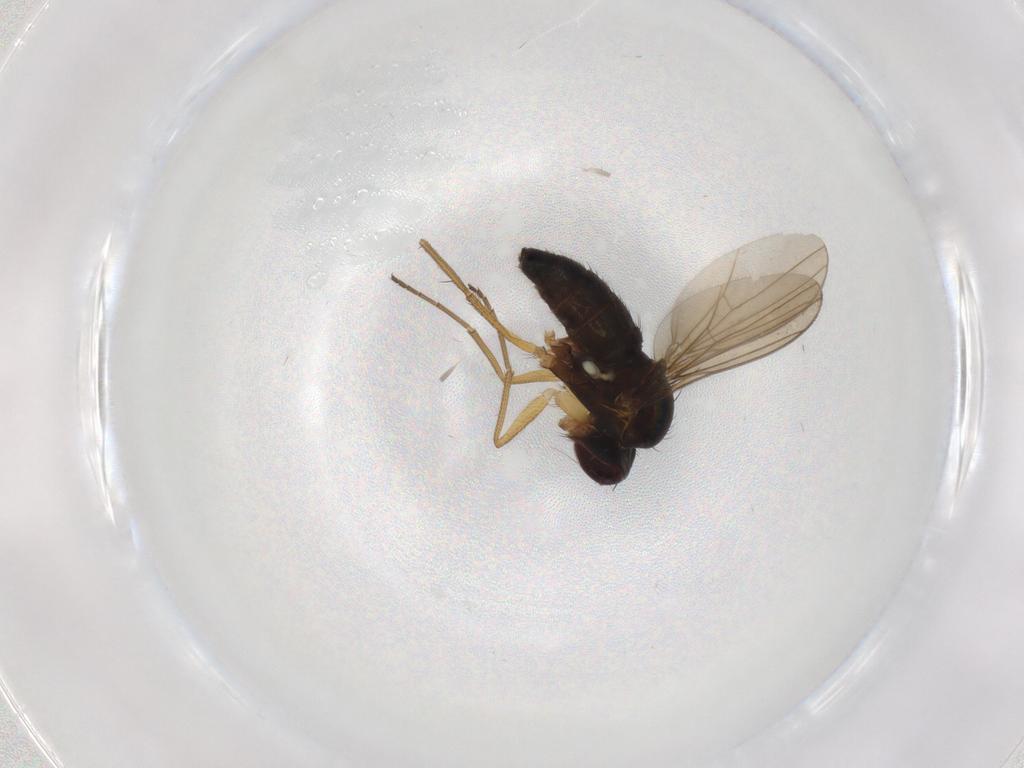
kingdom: Animalia
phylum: Arthropoda
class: Insecta
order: Diptera
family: Dolichopodidae
